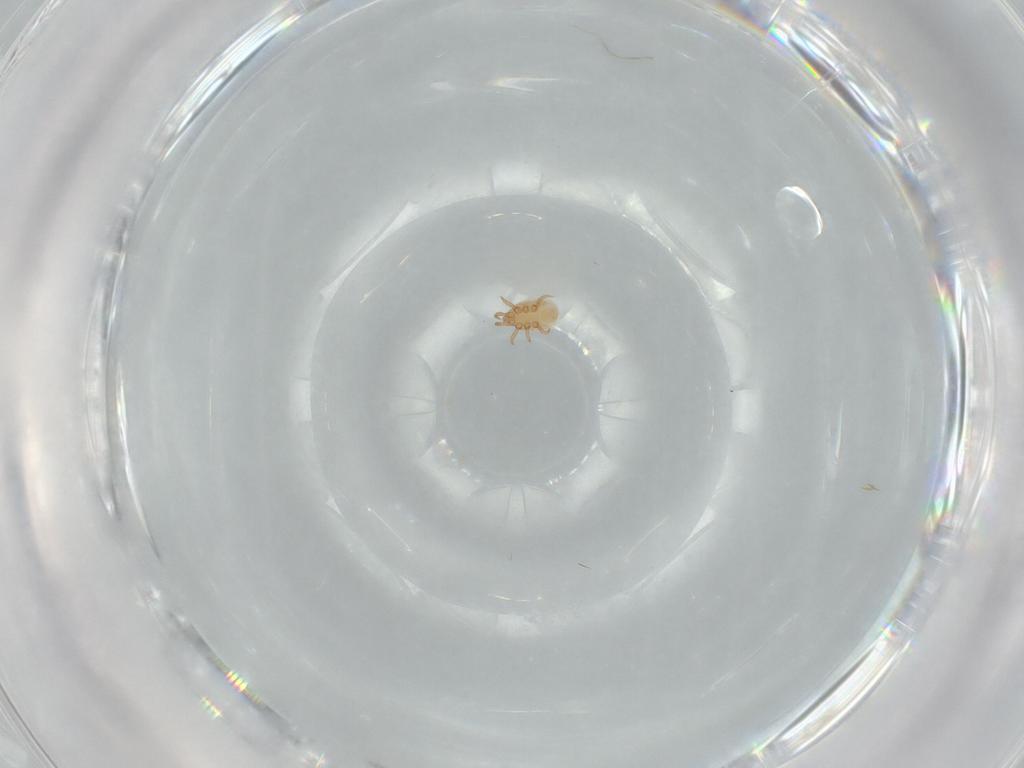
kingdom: Animalia
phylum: Arthropoda
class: Arachnida
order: Mesostigmata
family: Dinychidae
